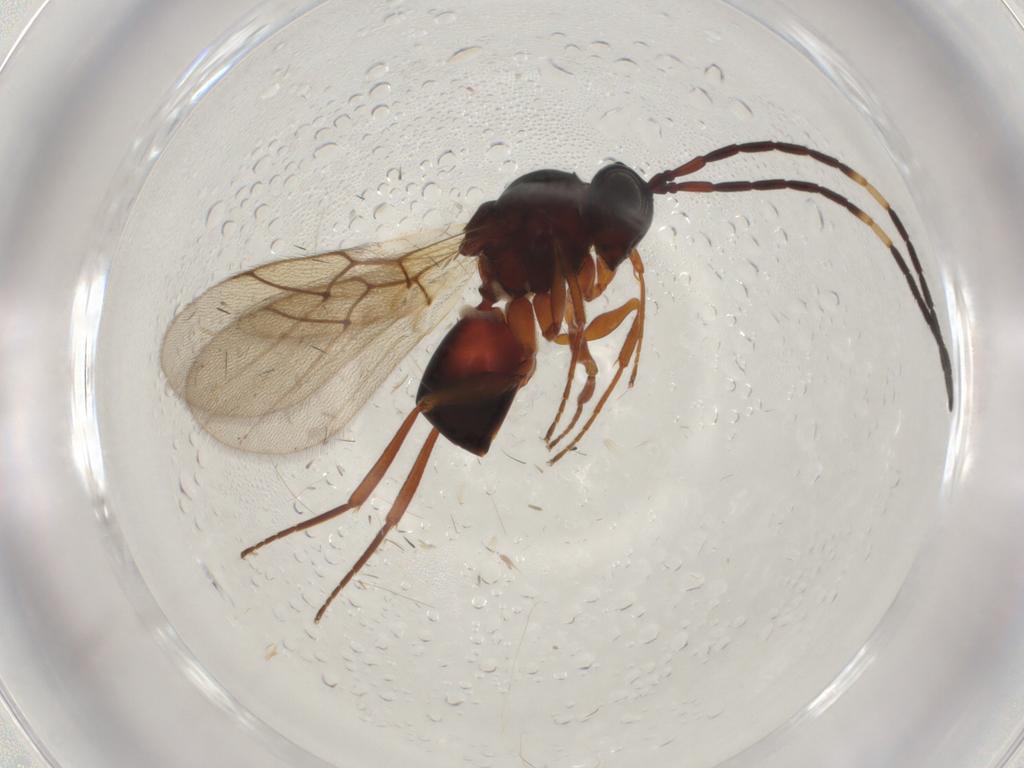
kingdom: Animalia
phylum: Arthropoda
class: Insecta
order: Hymenoptera
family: Figitidae
